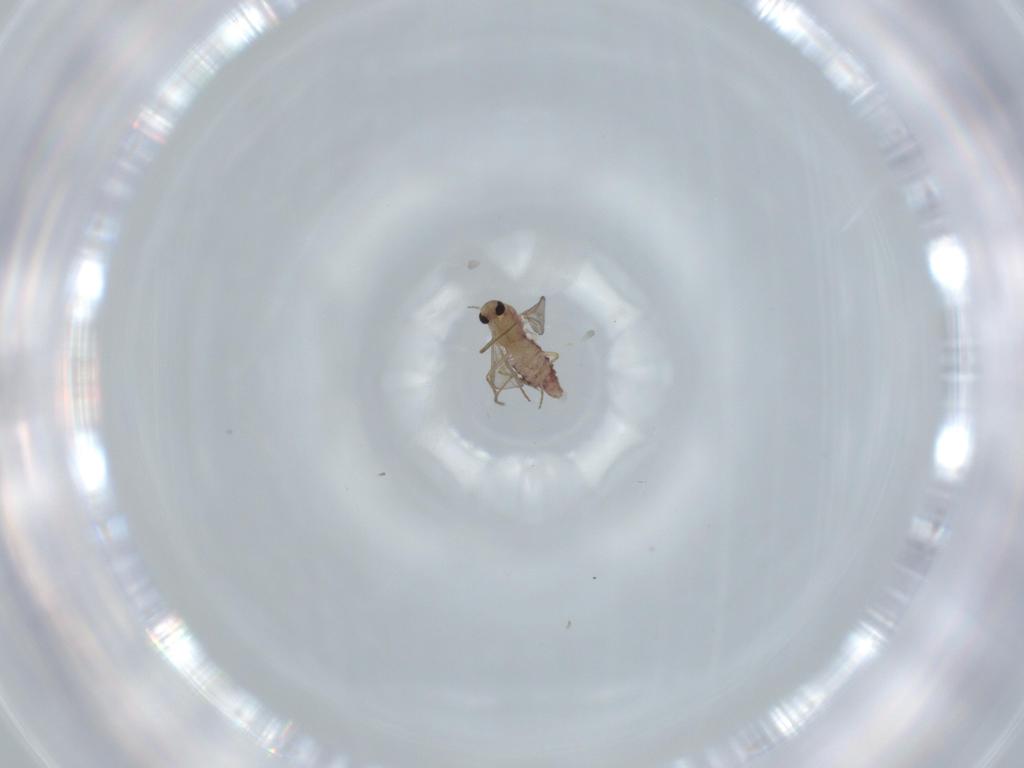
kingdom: Animalia
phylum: Arthropoda
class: Insecta
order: Diptera
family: Chironomidae
